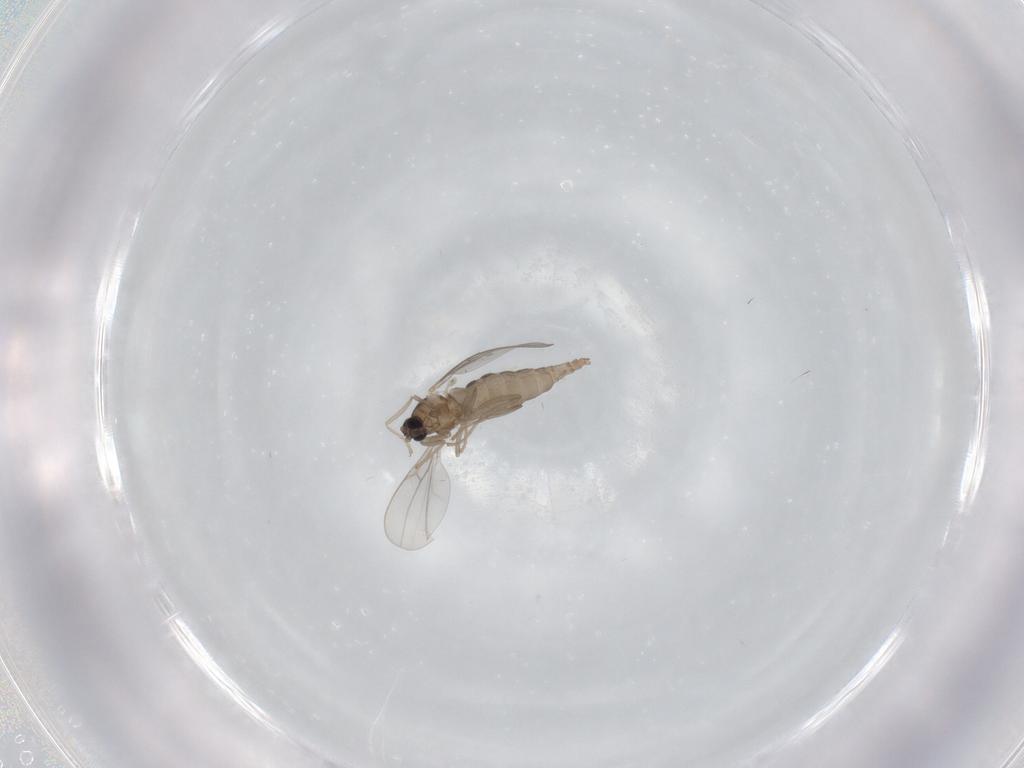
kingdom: Animalia
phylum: Arthropoda
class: Insecta
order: Diptera
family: Cecidomyiidae
